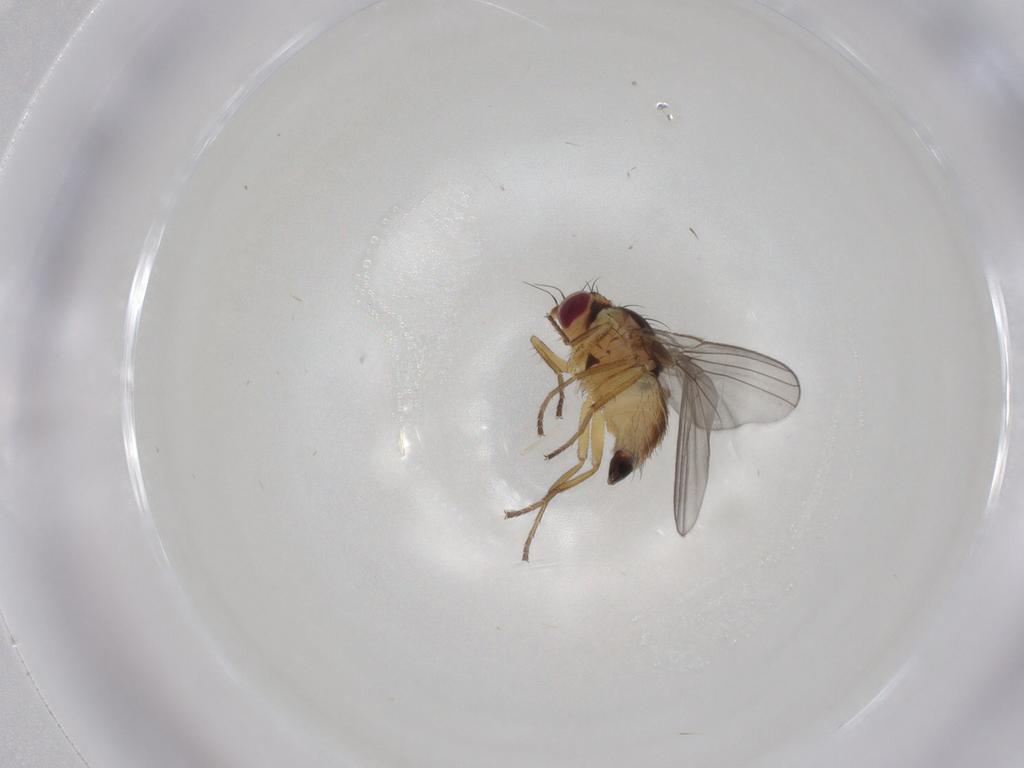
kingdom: Animalia
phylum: Arthropoda
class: Insecta
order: Diptera
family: Agromyzidae
